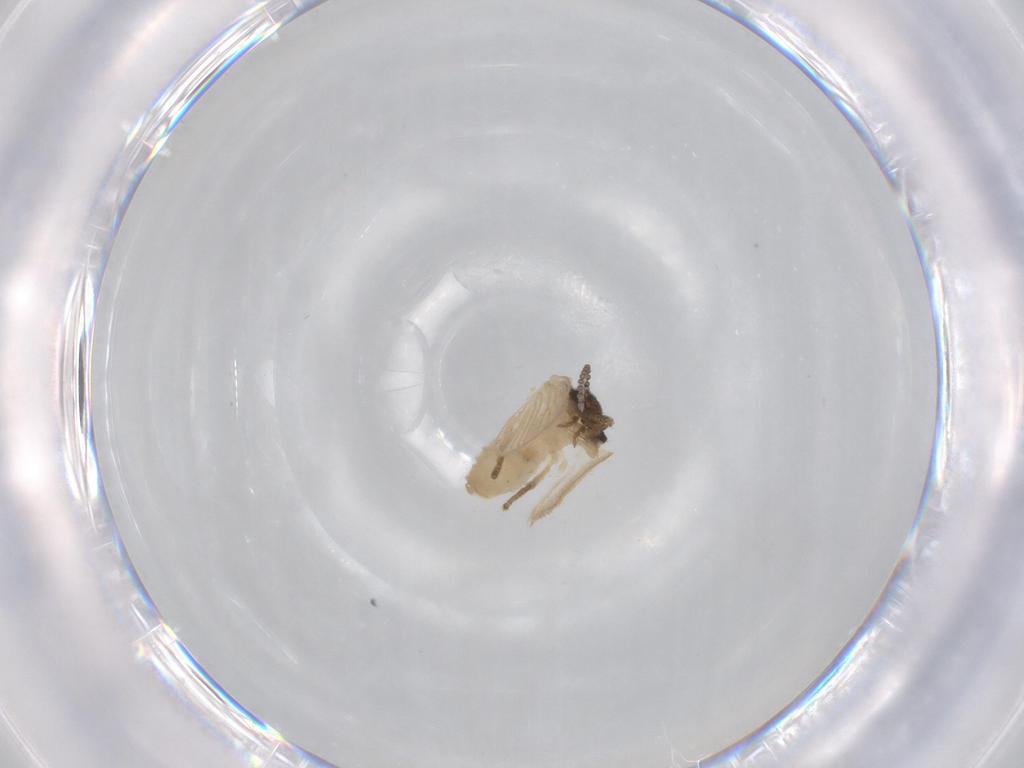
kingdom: Animalia
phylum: Arthropoda
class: Insecta
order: Diptera
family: Psychodidae
